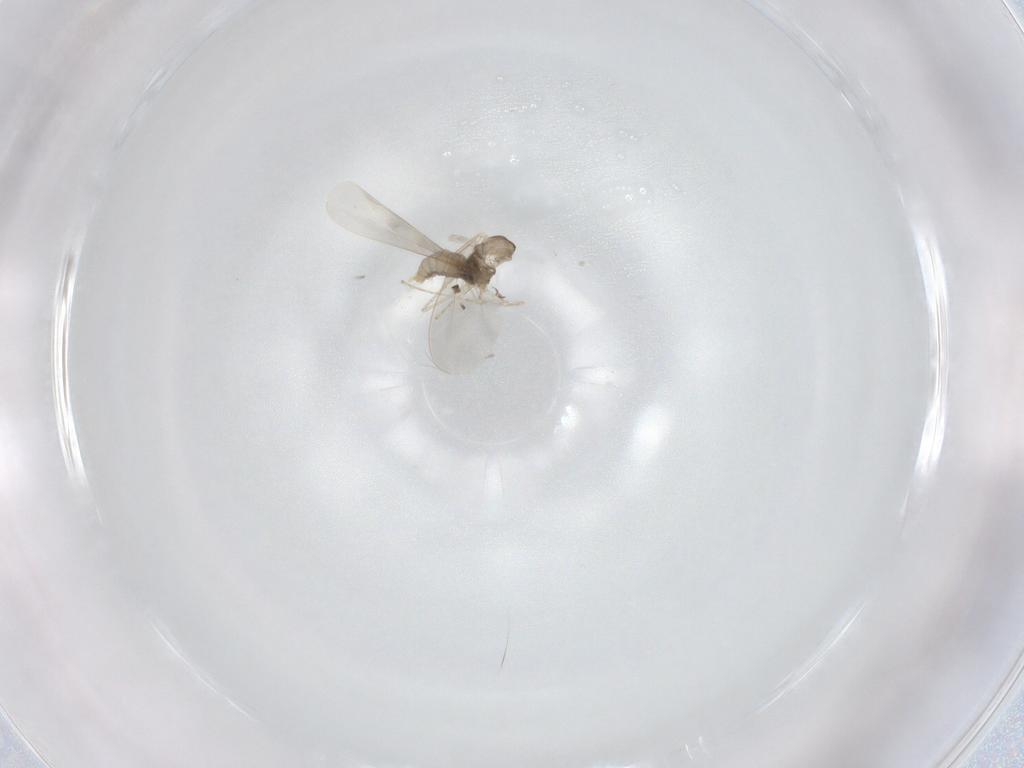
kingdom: Animalia
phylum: Arthropoda
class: Insecta
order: Diptera
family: Cecidomyiidae
